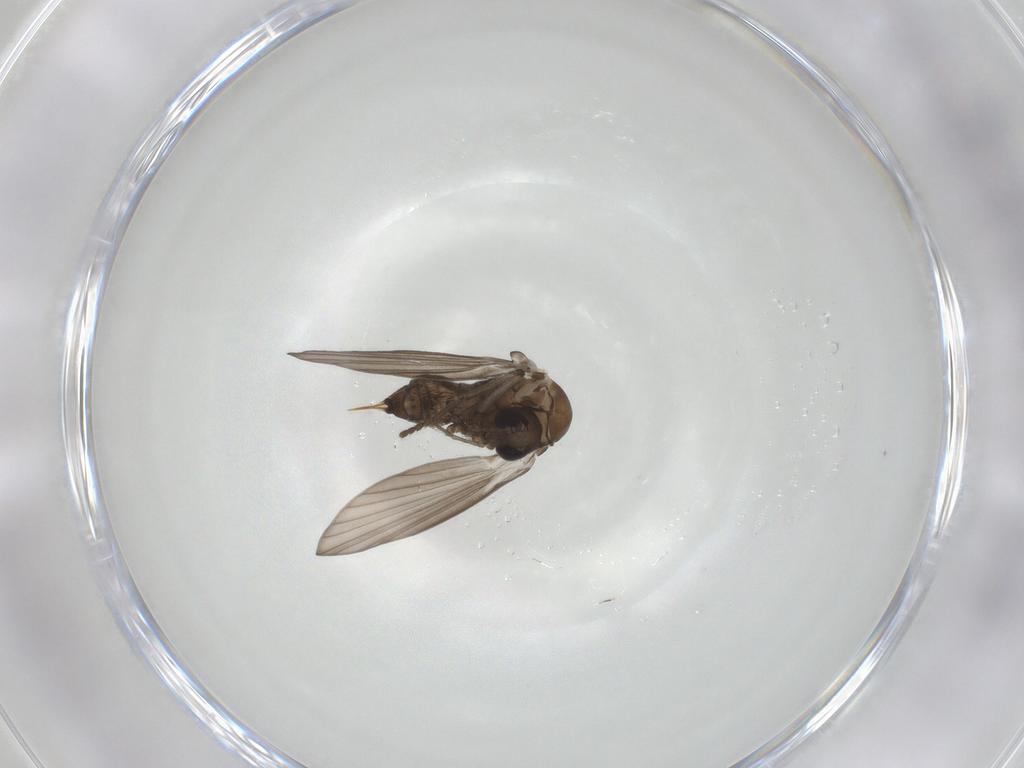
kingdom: Animalia
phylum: Arthropoda
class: Insecta
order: Diptera
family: Psychodidae
